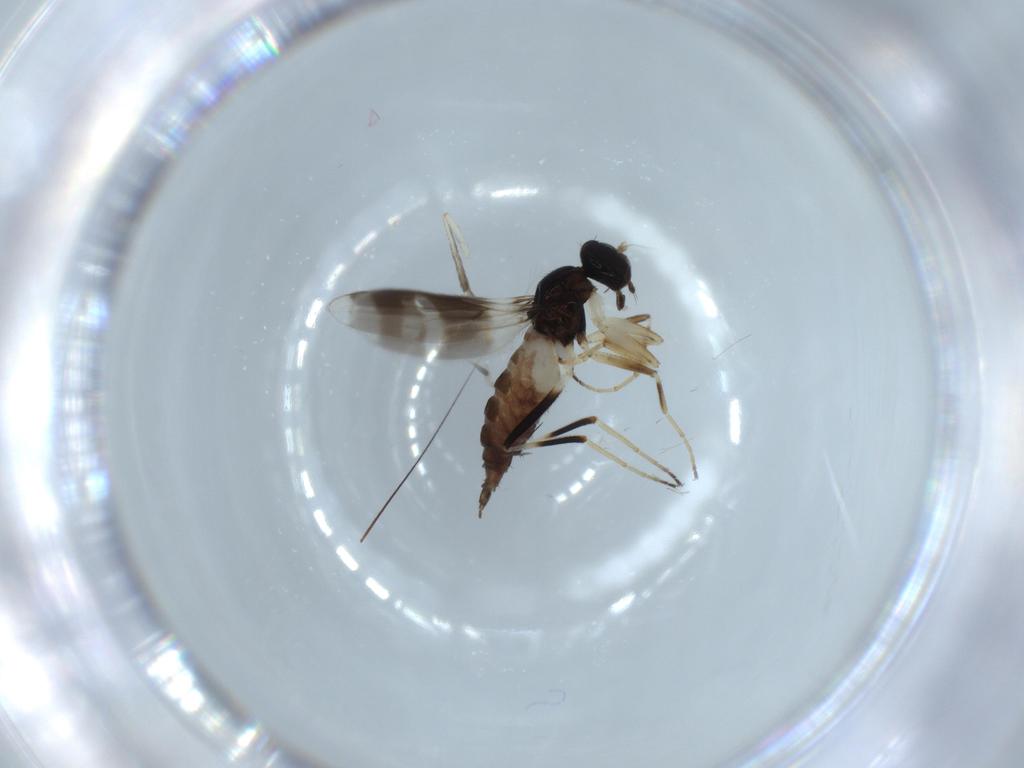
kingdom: Animalia
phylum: Arthropoda
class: Insecta
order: Diptera
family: Hybotidae
